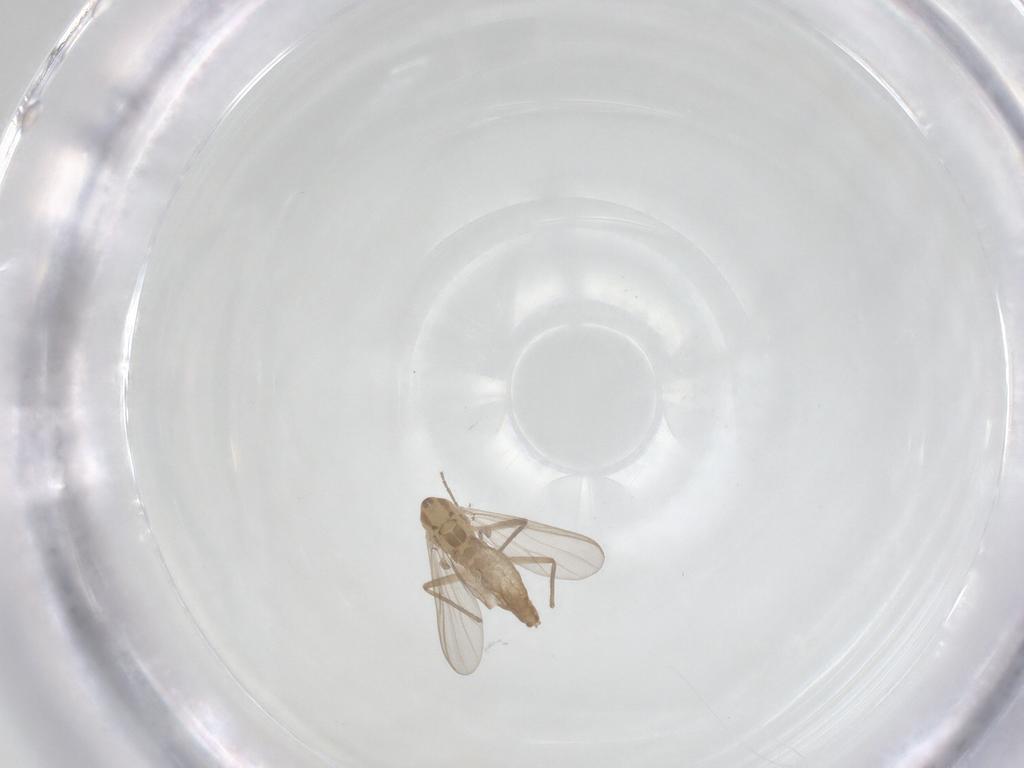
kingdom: Animalia
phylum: Arthropoda
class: Insecta
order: Diptera
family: Chironomidae
